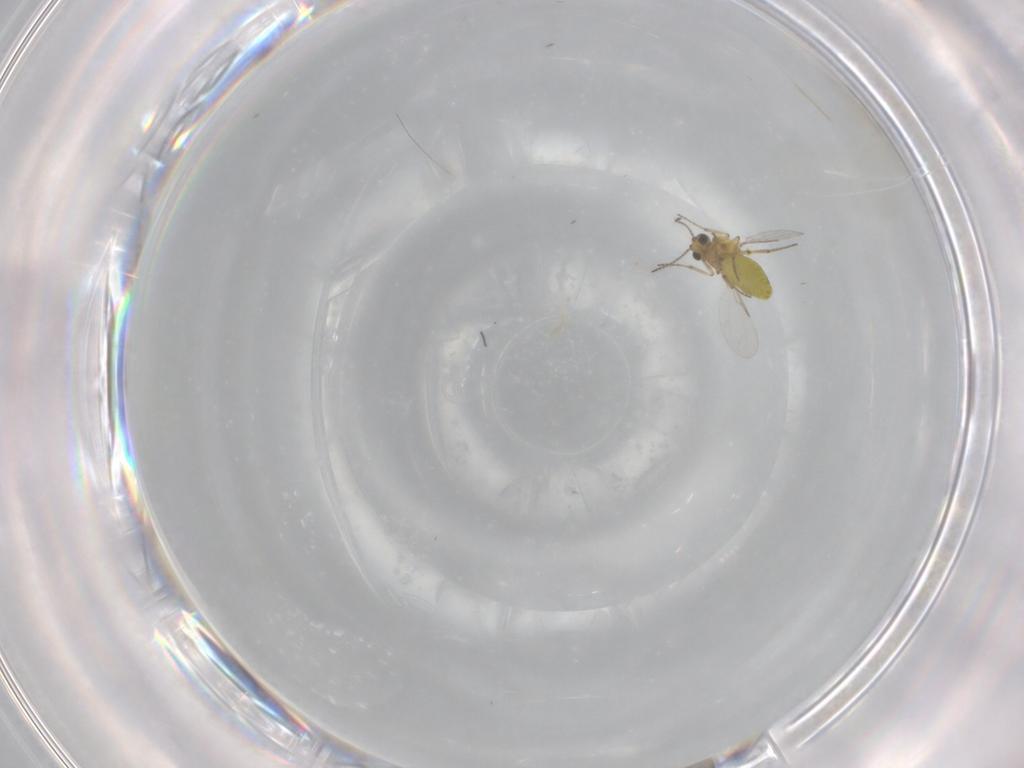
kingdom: Animalia
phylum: Arthropoda
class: Insecta
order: Diptera
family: Ceratopogonidae
